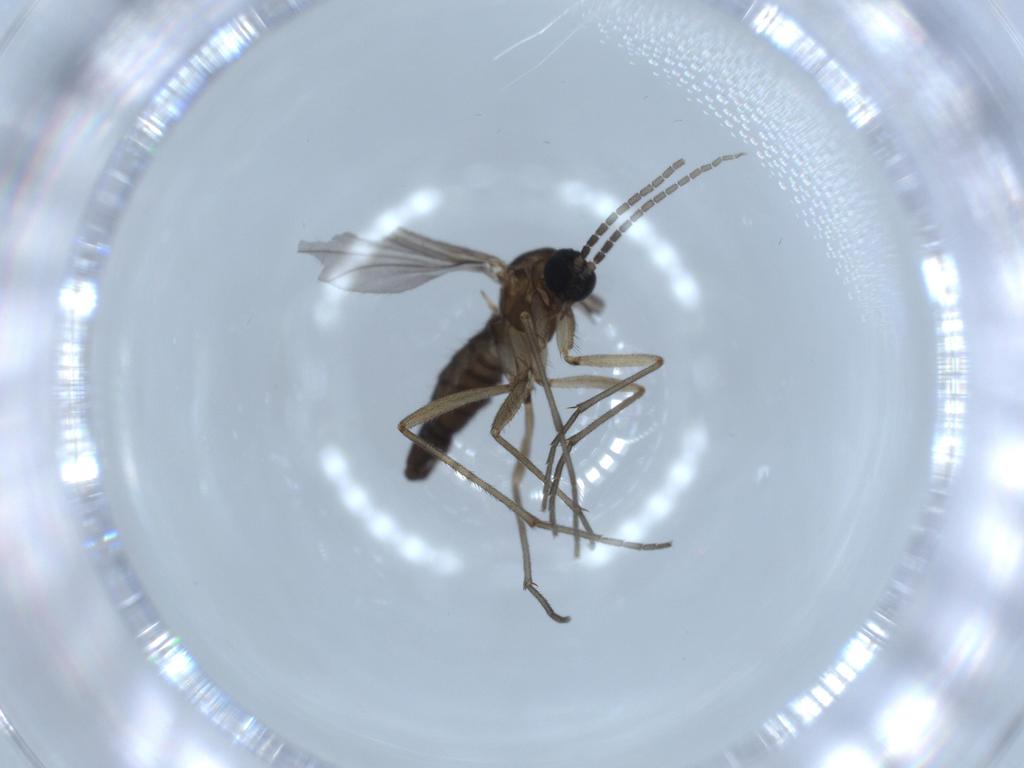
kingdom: Animalia
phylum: Arthropoda
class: Insecta
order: Diptera
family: Sciaridae
